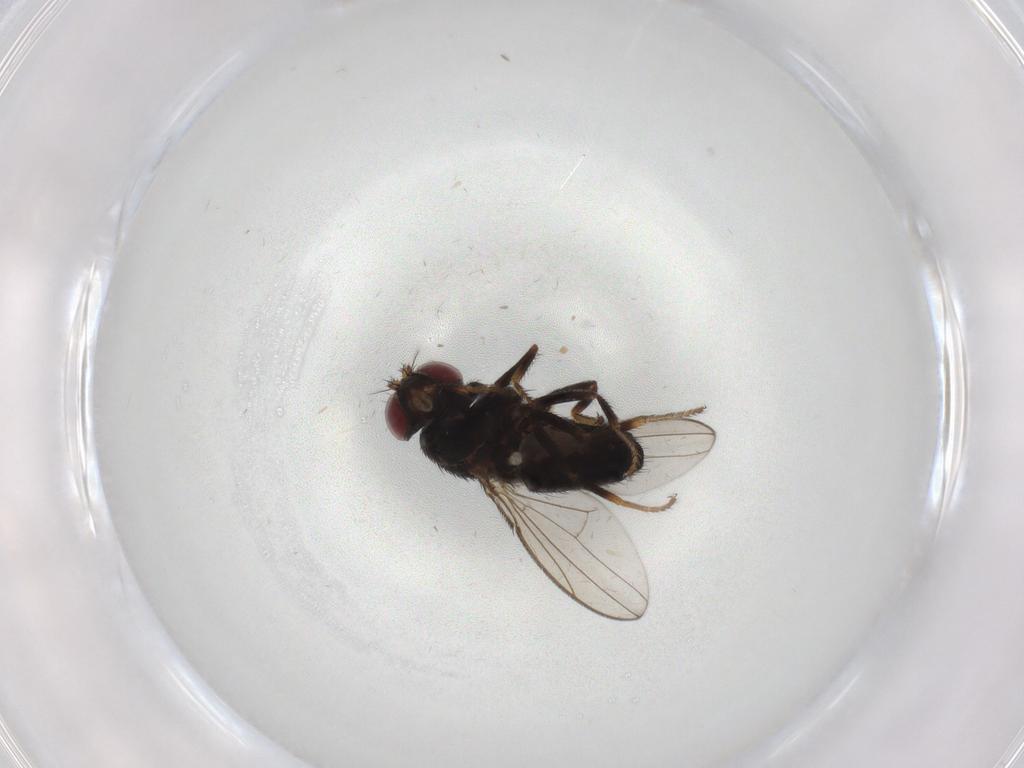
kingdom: Animalia
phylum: Arthropoda
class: Insecta
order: Diptera
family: Ephydridae
